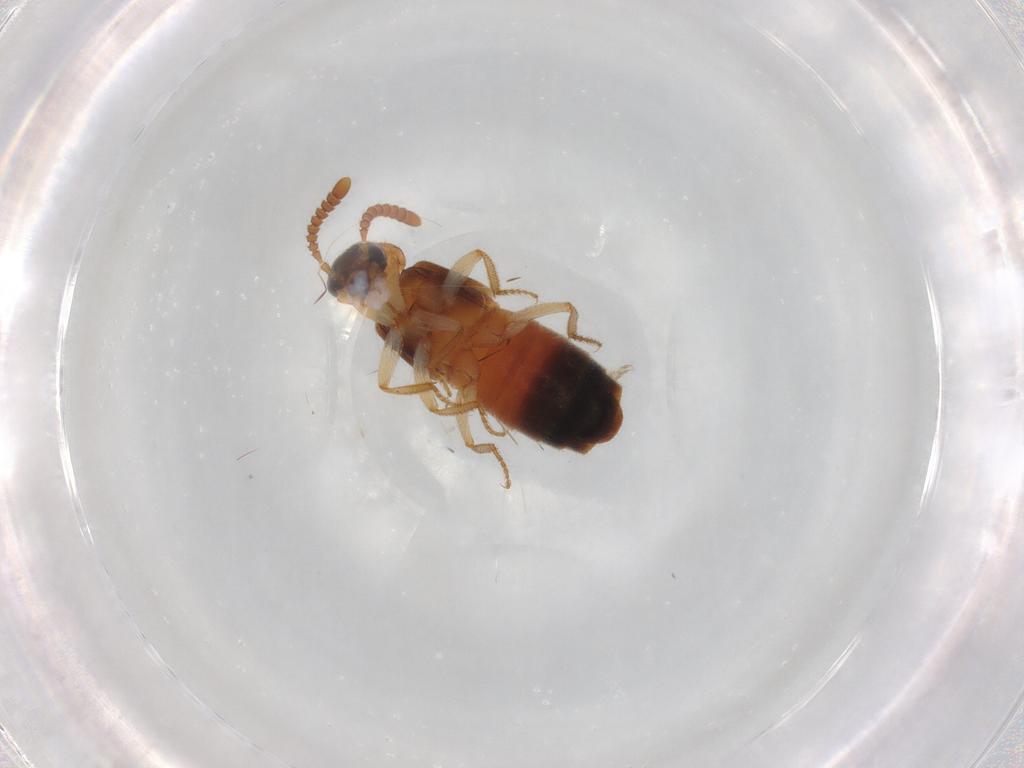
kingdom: Animalia
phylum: Arthropoda
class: Insecta
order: Coleoptera
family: Staphylinidae
